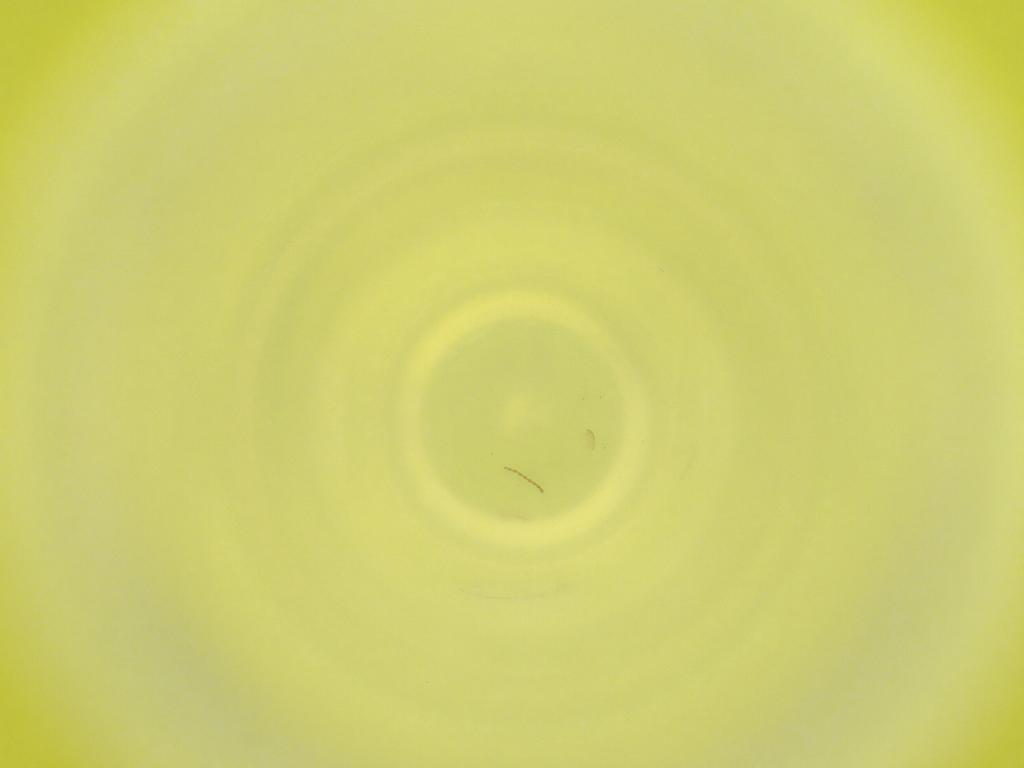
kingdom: Animalia
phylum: Arthropoda
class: Insecta
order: Diptera
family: Cecidomyiidae
